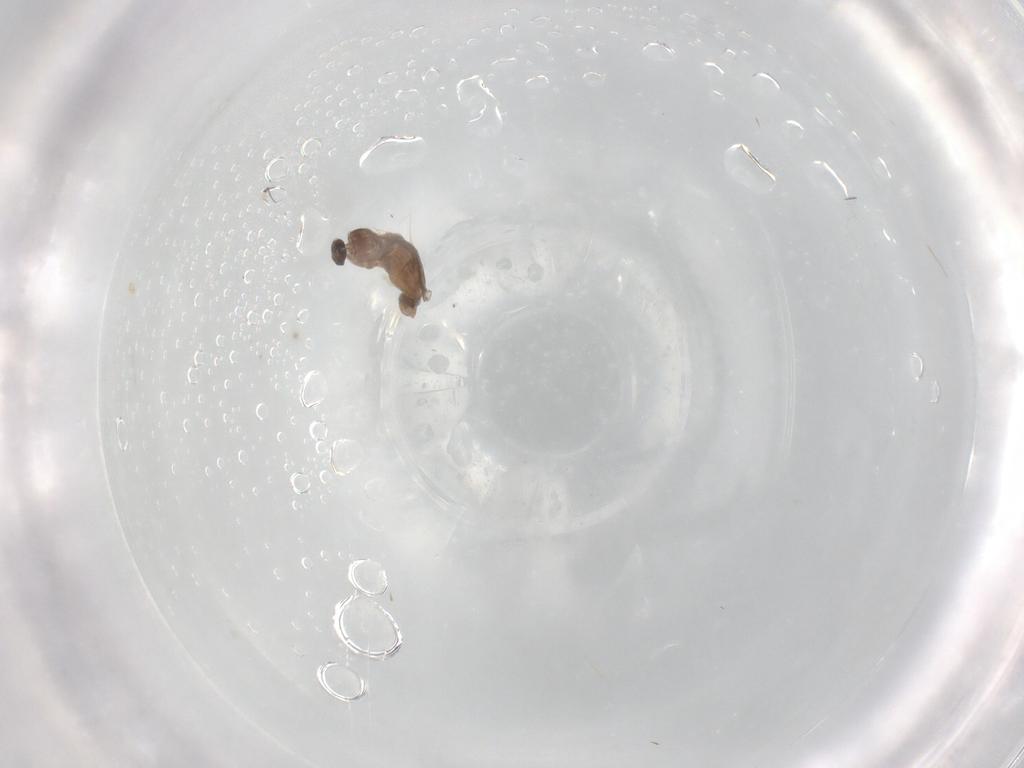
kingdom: Animalia
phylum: Arthropoda
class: Insecta
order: Diptera
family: Cecidomyiidae
